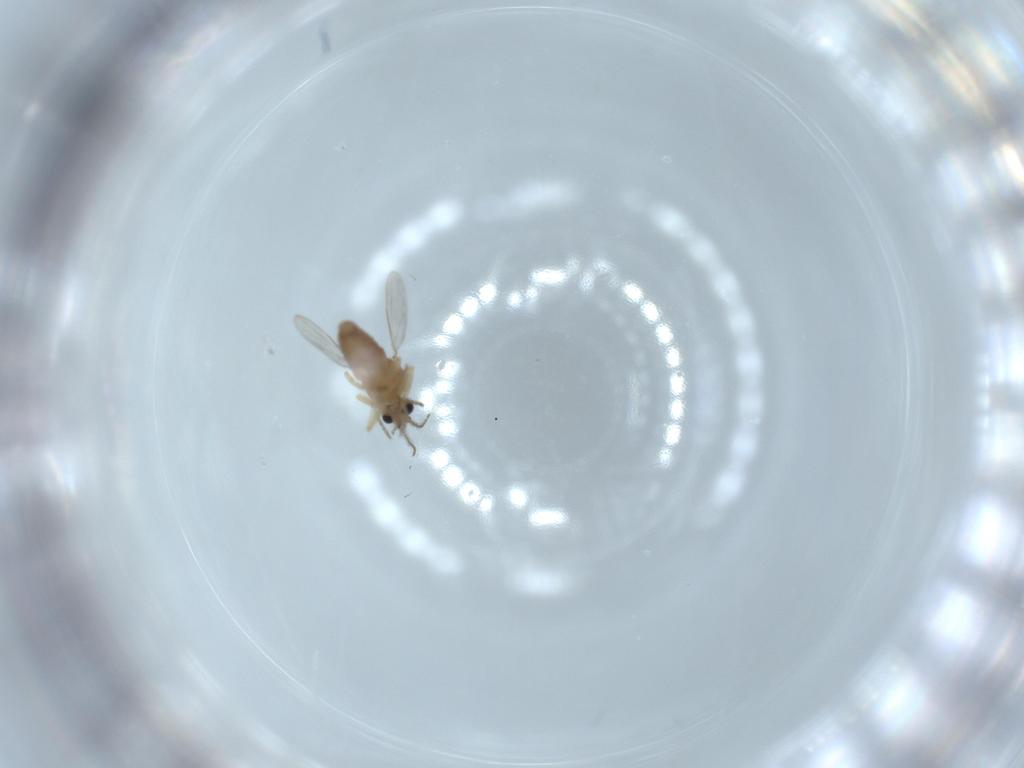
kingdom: Animalia
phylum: Arthropoda
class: Insecta
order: Diptera
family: Ceratopogonidae
